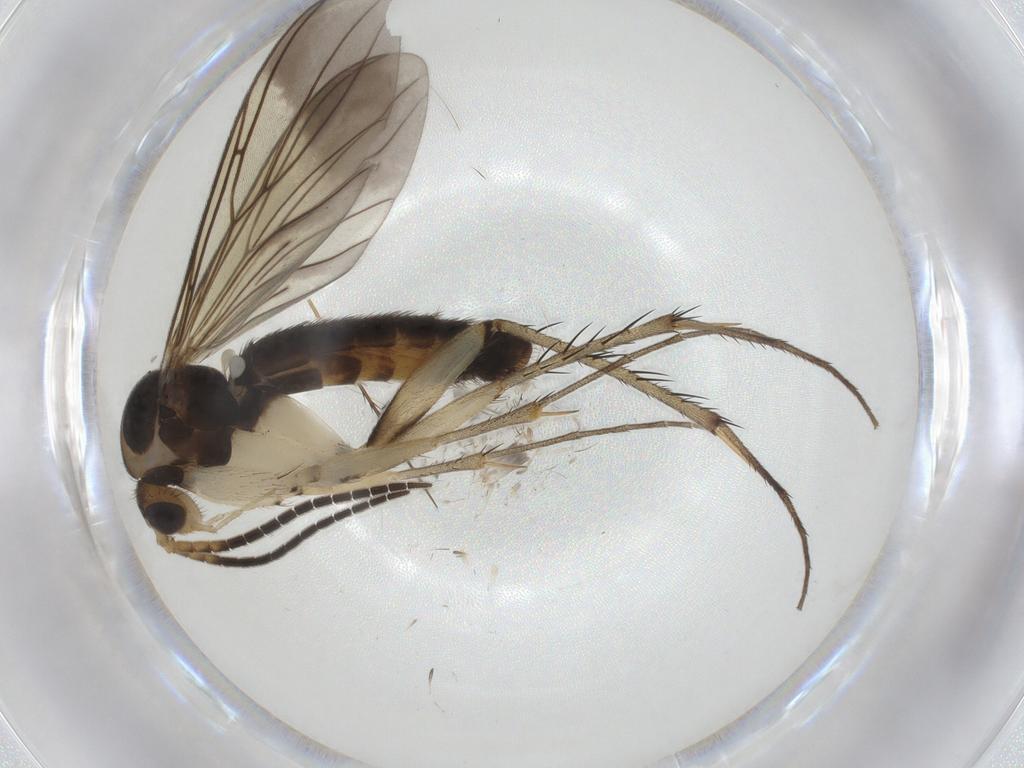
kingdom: Animalia
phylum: Arthropoda
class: Insecta
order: Diptera
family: Mycetophilidae
